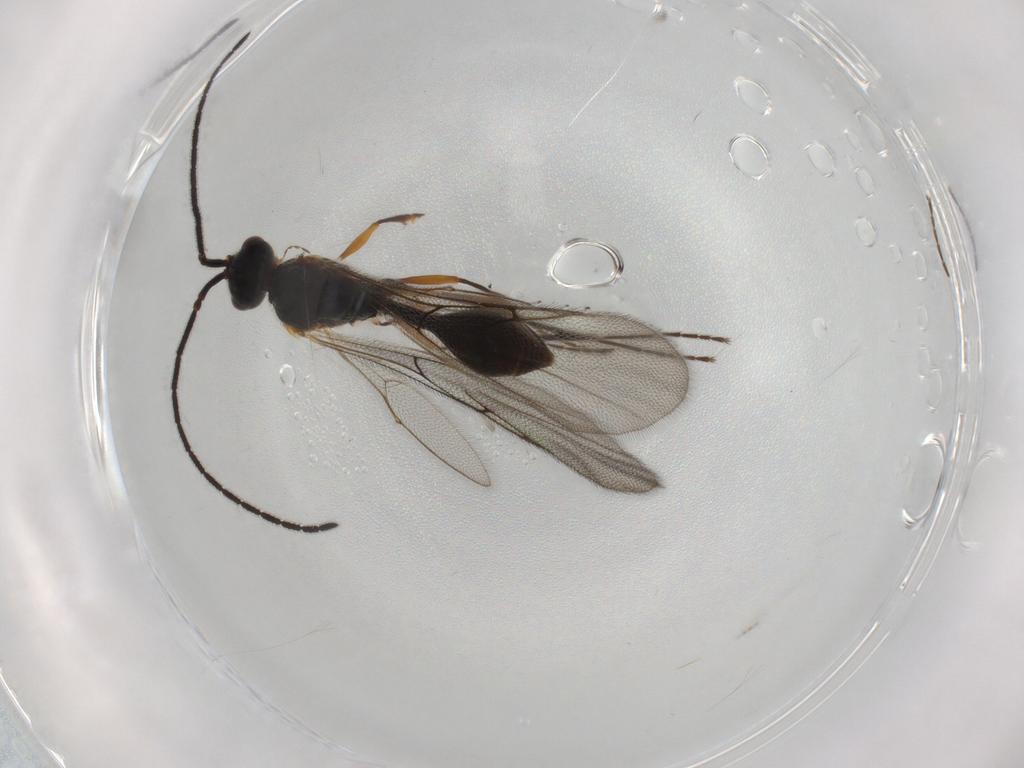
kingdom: Animalia
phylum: Arthropoda
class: Insecta
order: Hymenoptera
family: Diapriidae
